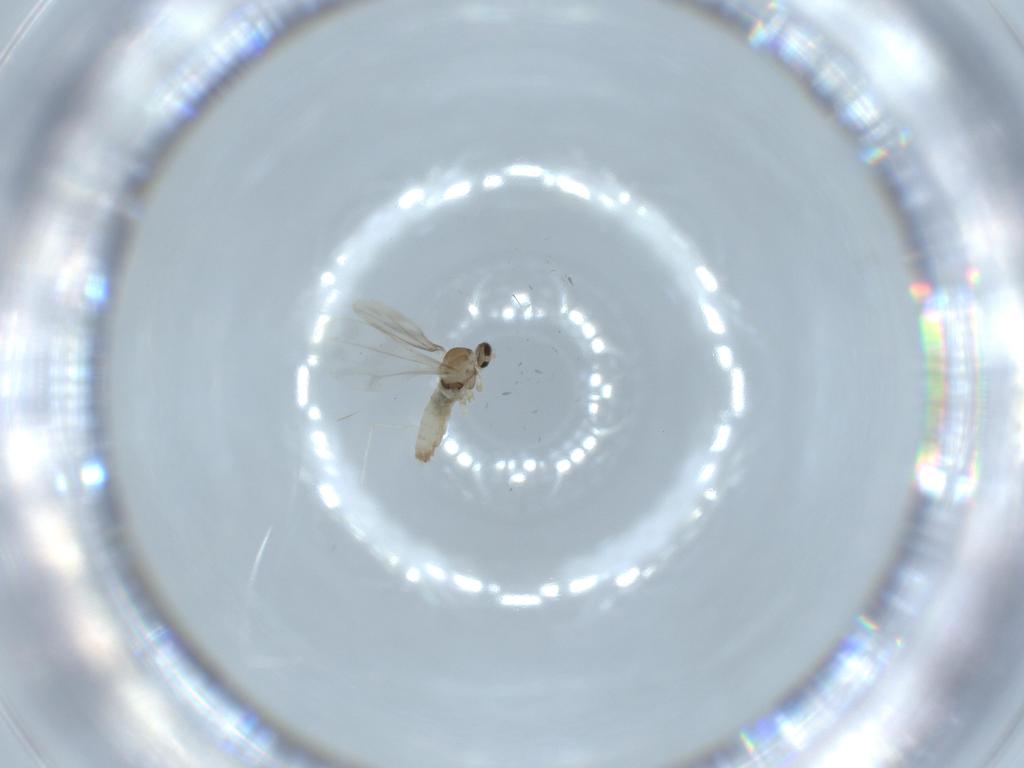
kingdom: Animalia
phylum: Arthropoda
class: Insecta
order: Diptera
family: Cecidomyiidae
